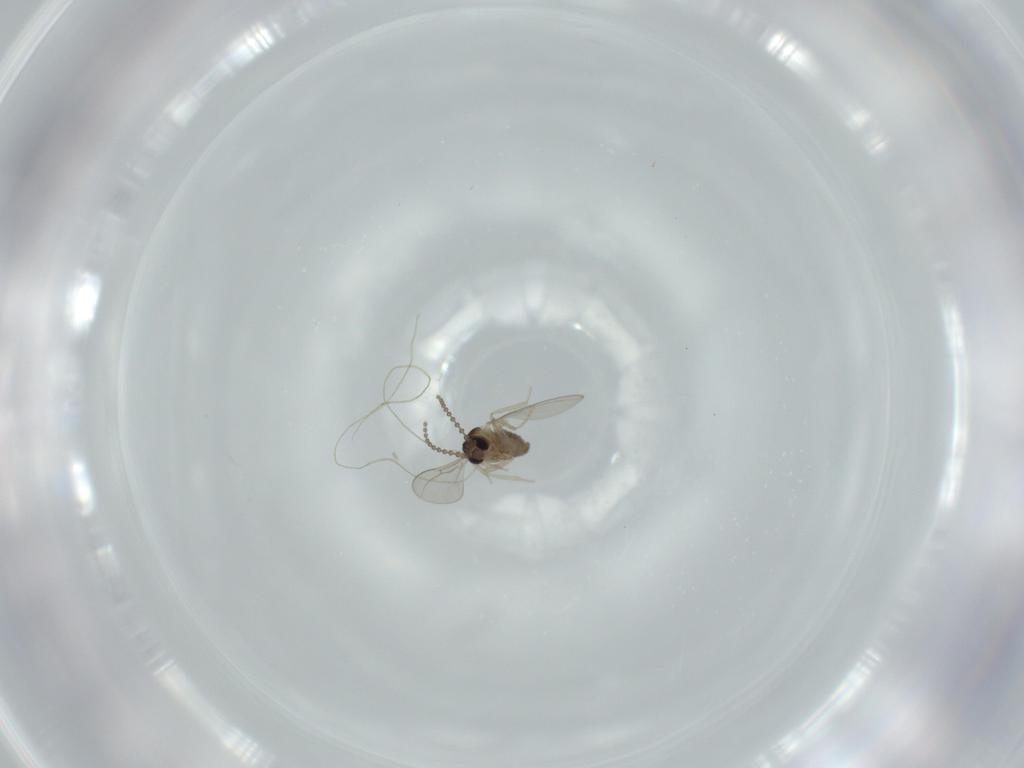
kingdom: Animalia
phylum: Arthropoda
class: Insecta
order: Diptera
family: Cecidomyiidae
